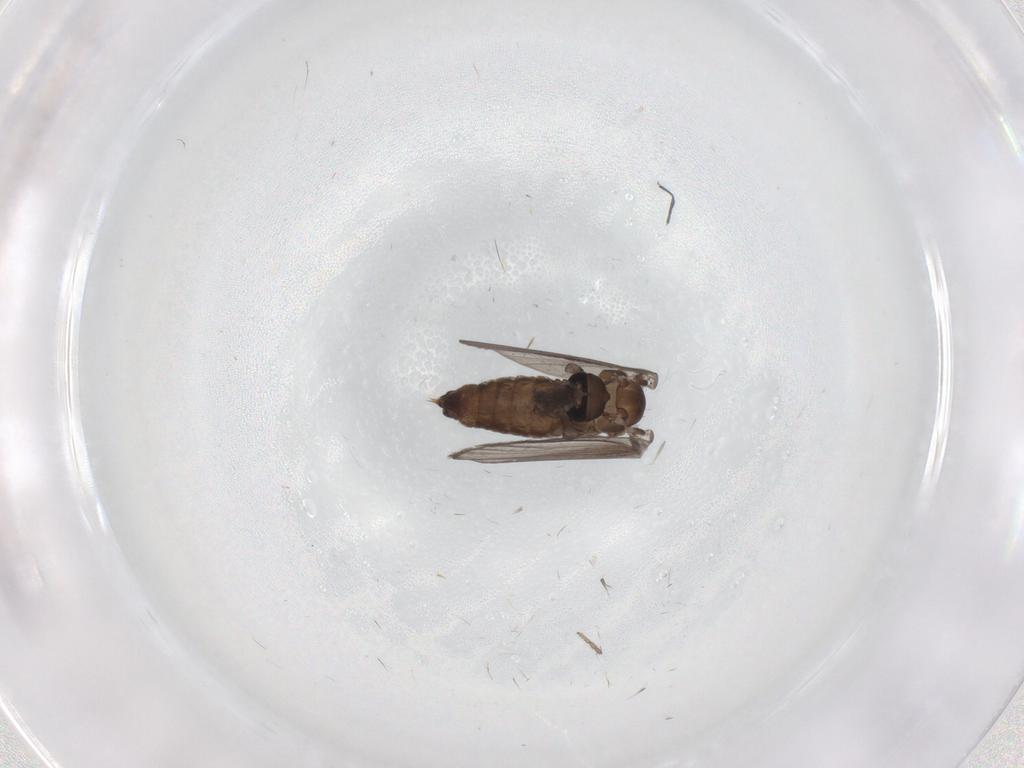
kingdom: Animalia
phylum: Arthropoda
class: Insecta
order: Diptera
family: Psychodidae
